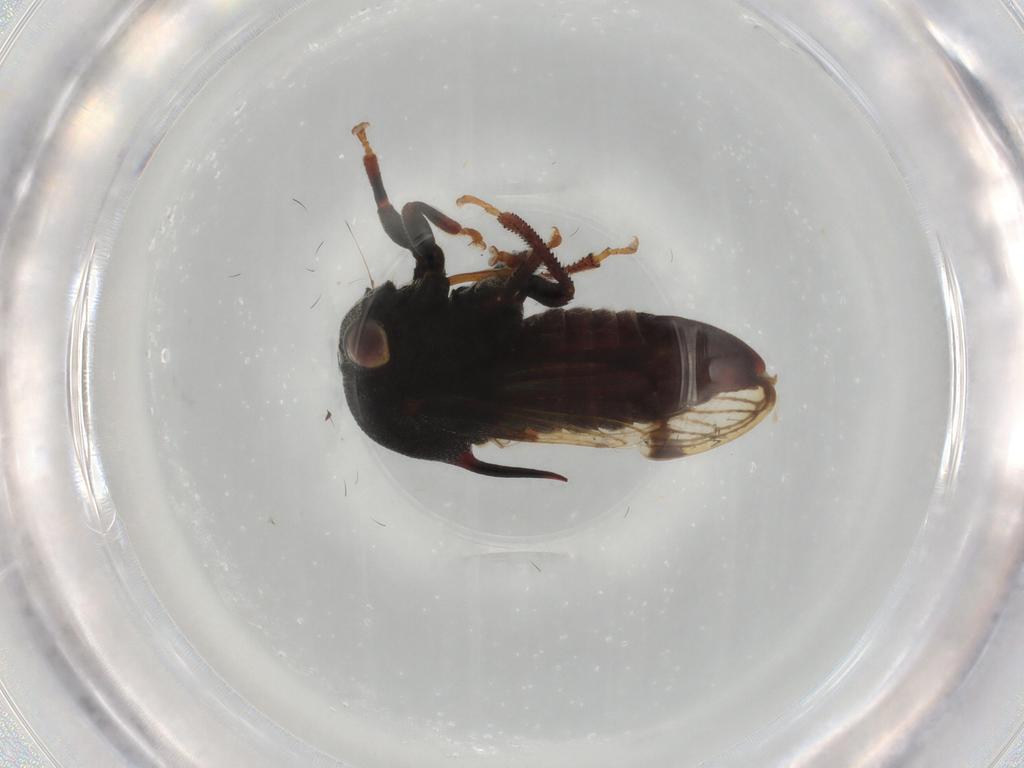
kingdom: Animalia
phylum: Arthropoda
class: Insecta
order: Hemiptera
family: Membracidae
